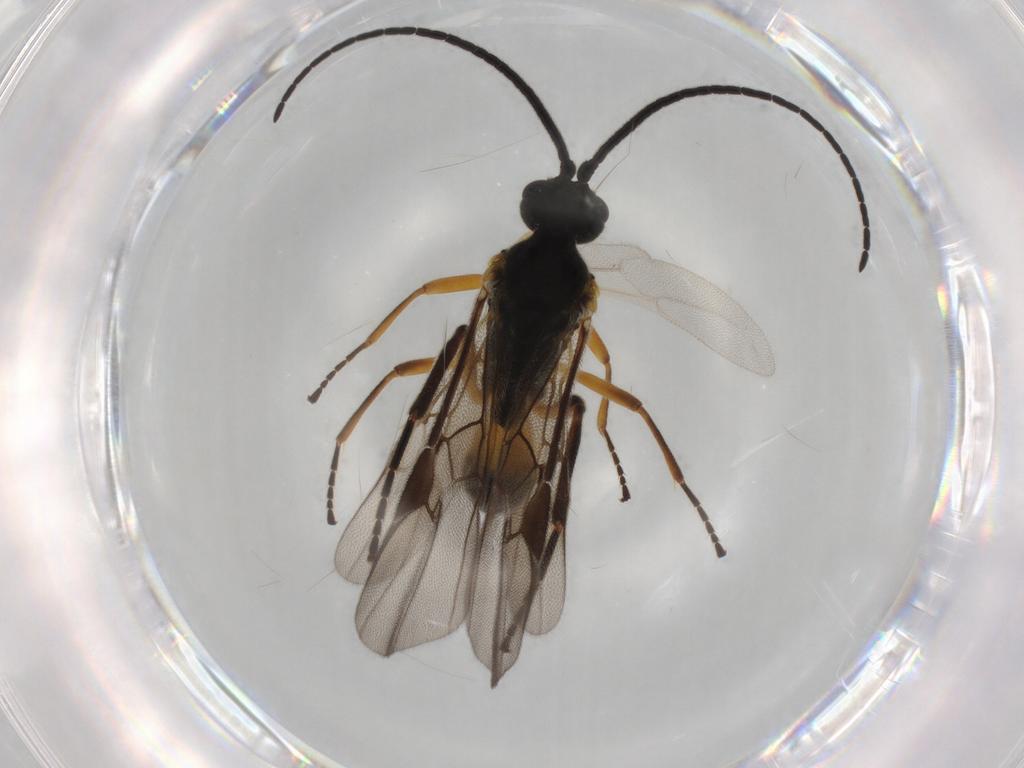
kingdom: Animalia
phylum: Arthropoda
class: Insecta
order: Hymenoptera
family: Braconidae
